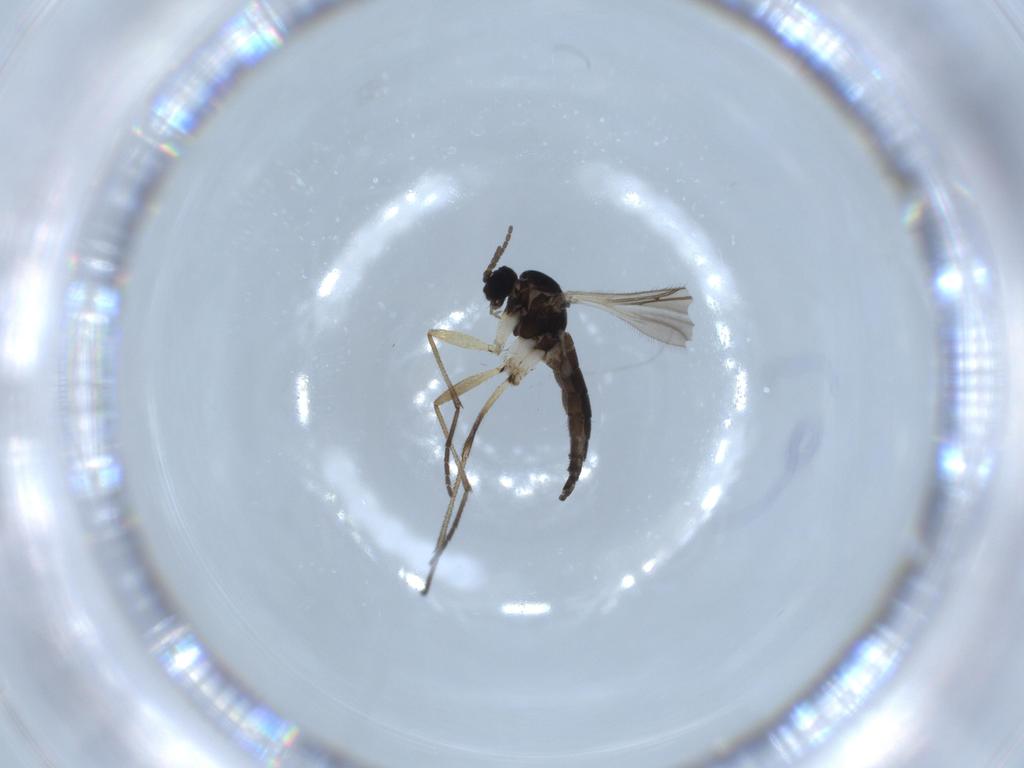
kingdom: Animalia
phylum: Arthropoda
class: Insecta
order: Diptera
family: Sciaridae
